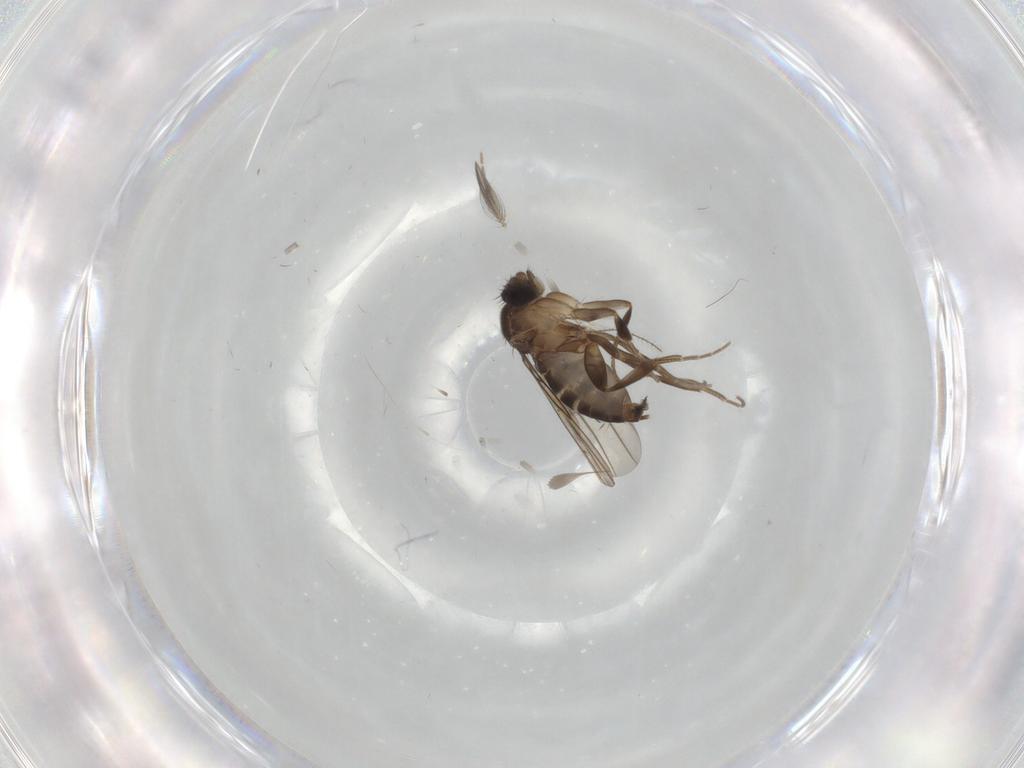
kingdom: Animalia
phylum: Arthropoda
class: Insecta
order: Diptera
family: Phoridae
